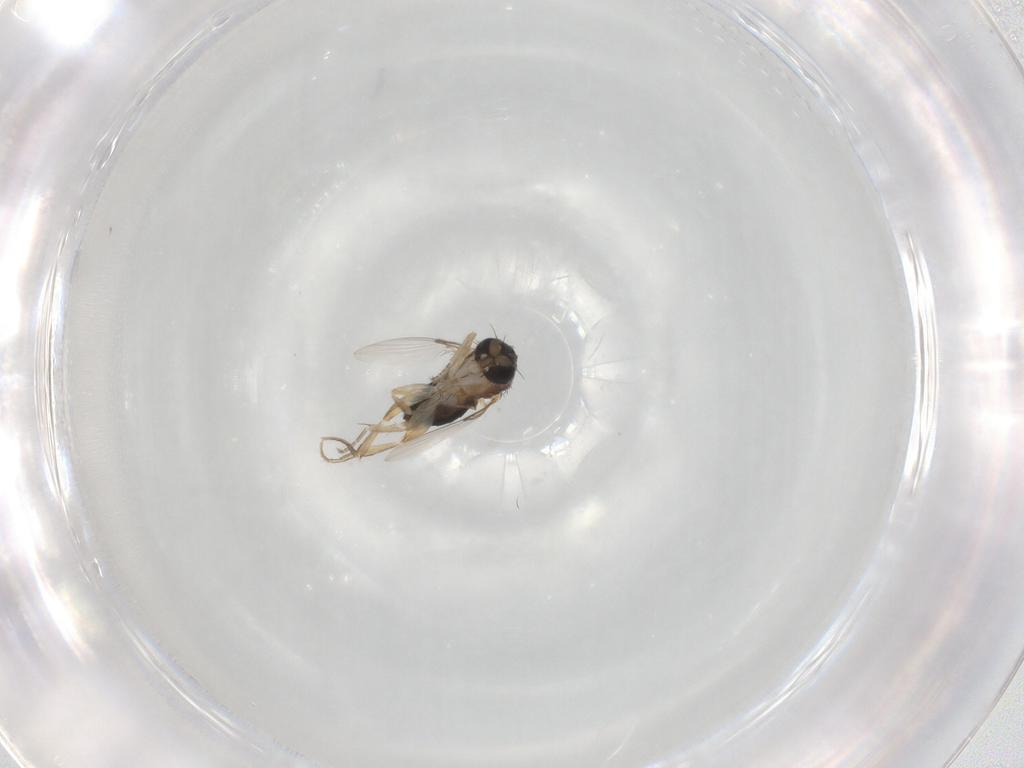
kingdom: Animalia
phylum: Arthropoda
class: Insecta
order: Diptera
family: Phoridae
